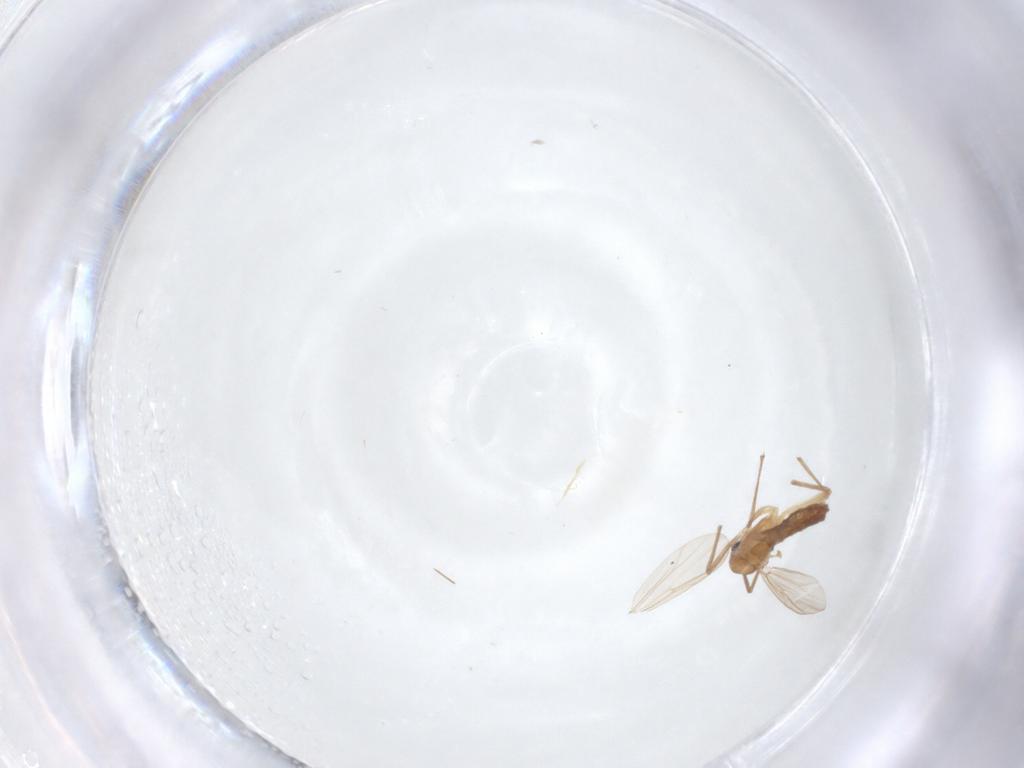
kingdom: Animalia
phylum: Arthropoda
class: Insecta
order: Diptera
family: Chironomidae
